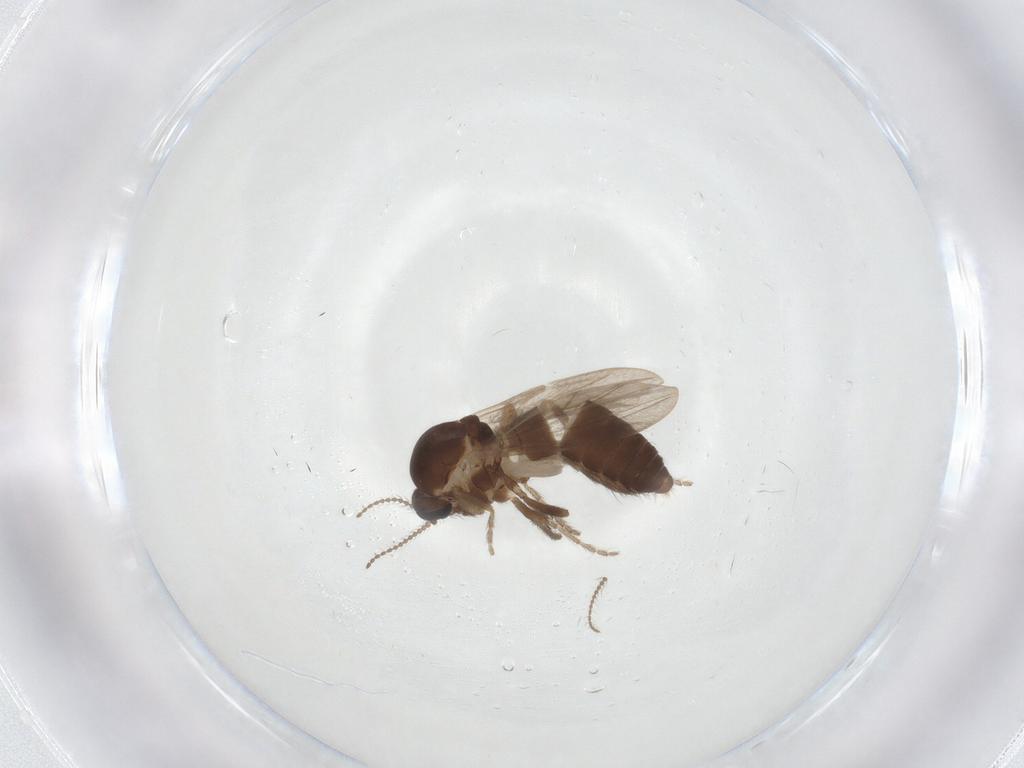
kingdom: Animalia
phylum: Arthropoda
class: Insecta
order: Diptera
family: Ceratopogonidae
